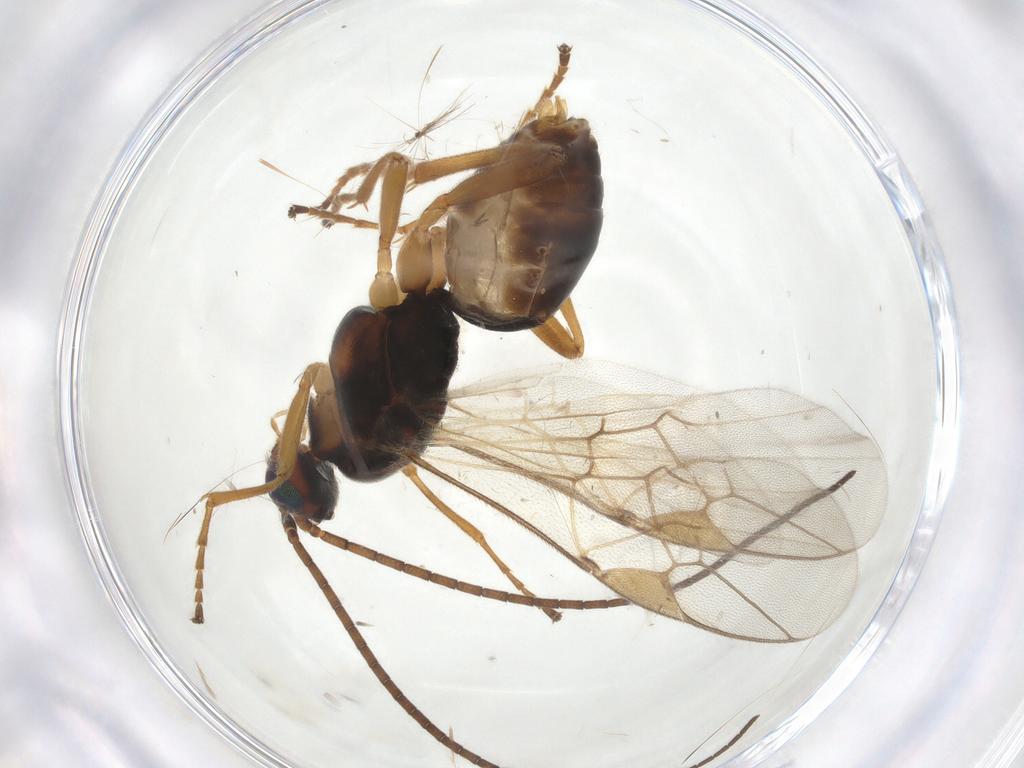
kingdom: Animalia
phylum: Arthropoda
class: Insecta
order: Hymenoptera
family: Braconidae
